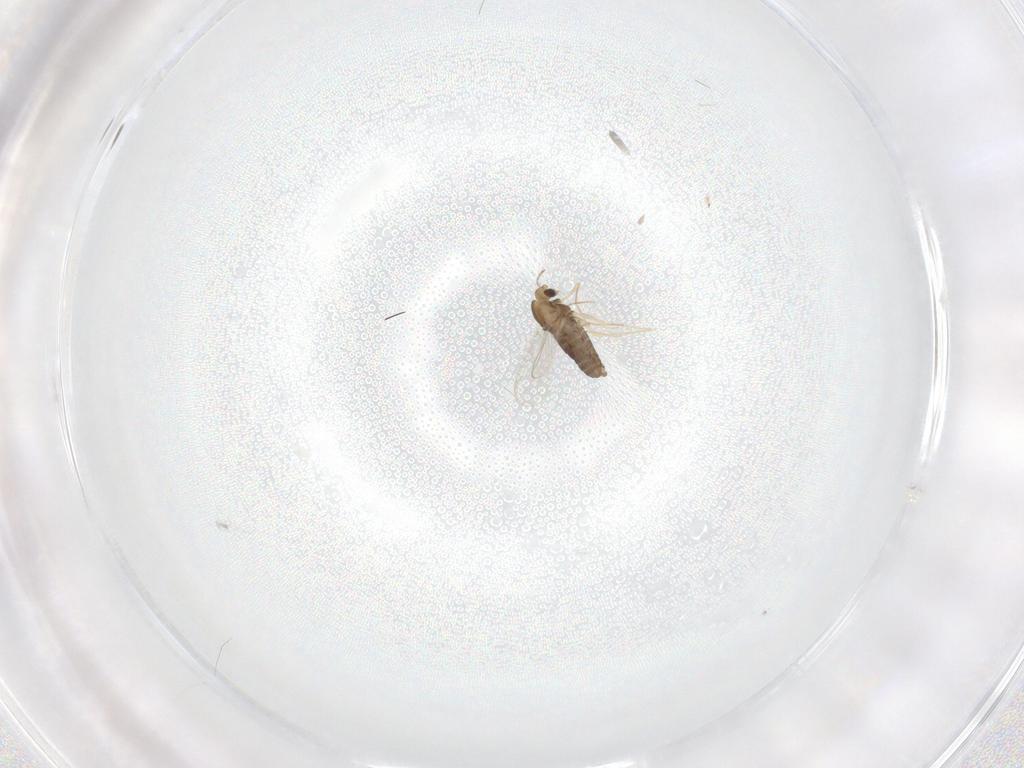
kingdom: Animalia
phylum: Arthropoda
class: Insecta
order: Diptera
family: Chironomidae
